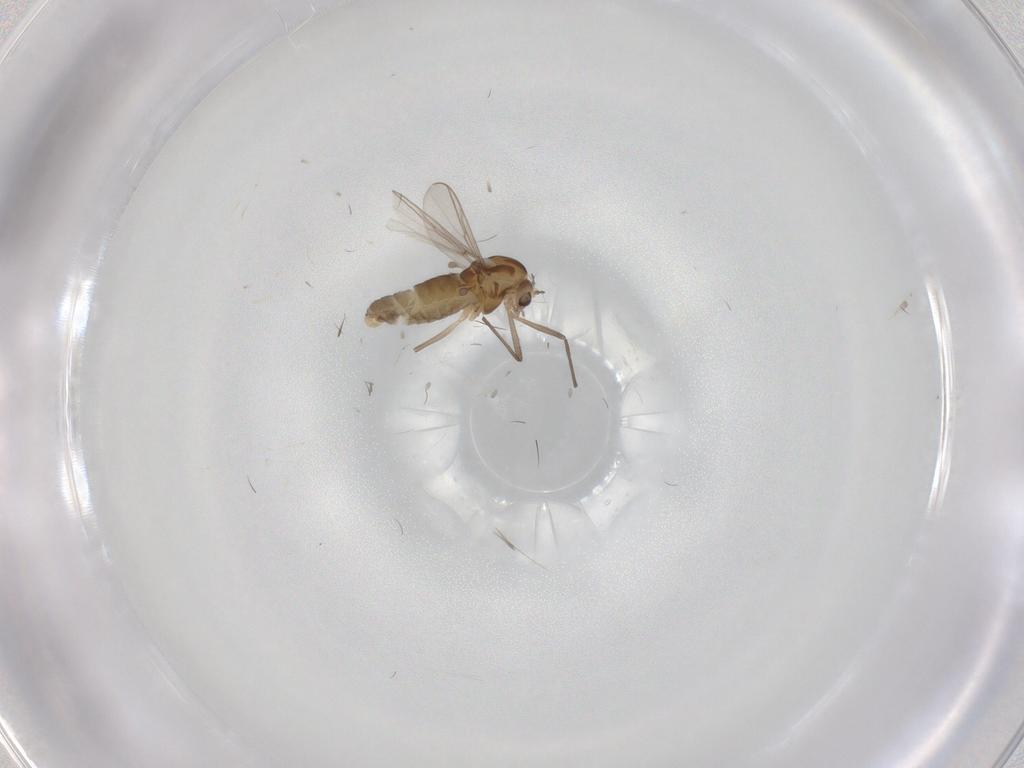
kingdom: Animalia
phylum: Arthropoda
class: Insecta
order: Diptera
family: Chironomidae
